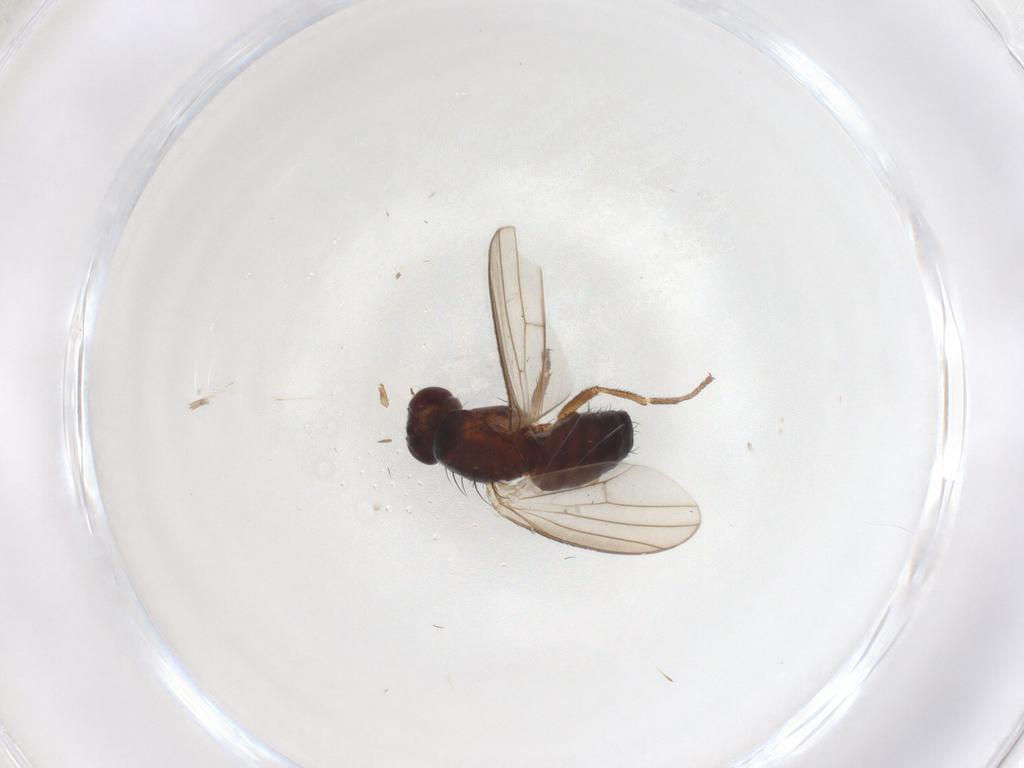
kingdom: Animalia
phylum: Arthropoda
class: Insecta
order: Diptera
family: Heleomyzidae
